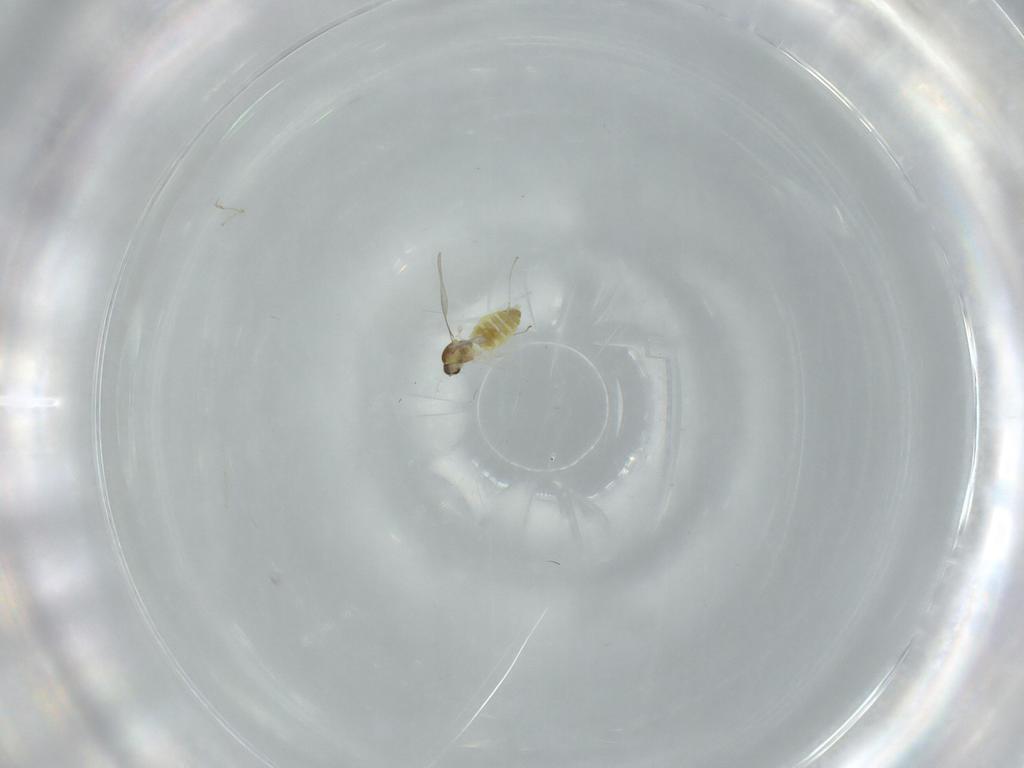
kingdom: Animalia
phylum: Arthropoda
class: Insecta
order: Diptera
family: Cecidomyiidae
